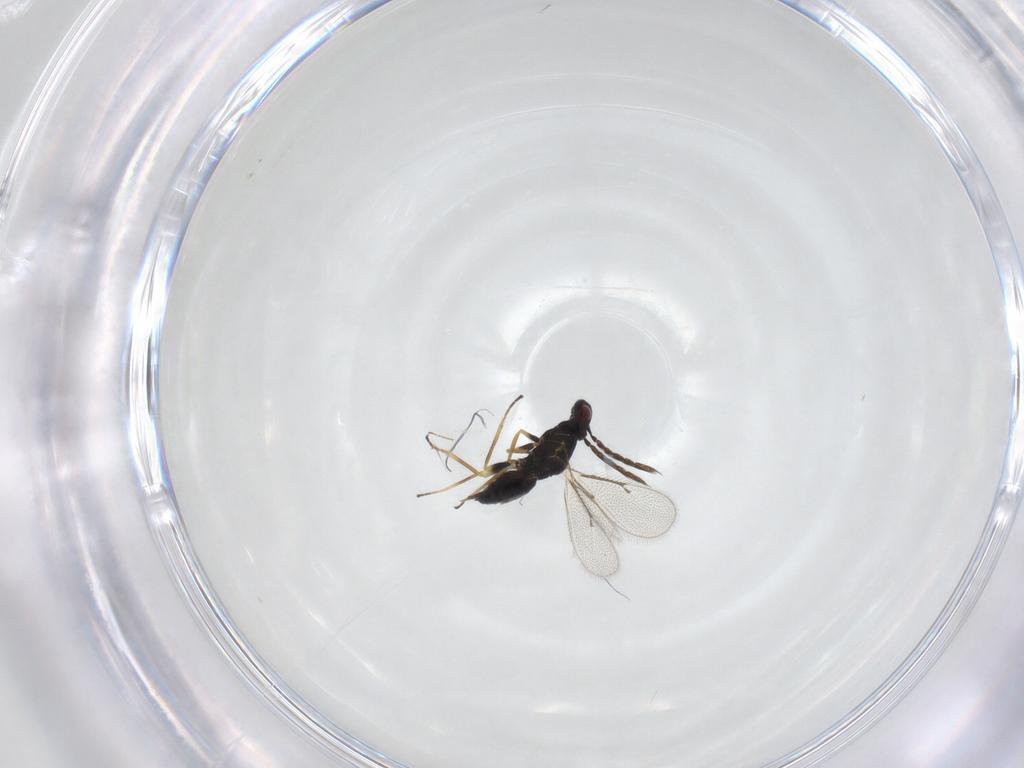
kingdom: Animalia
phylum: Arthropoda
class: Insecta
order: Hymenoptera
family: Eulophidae
